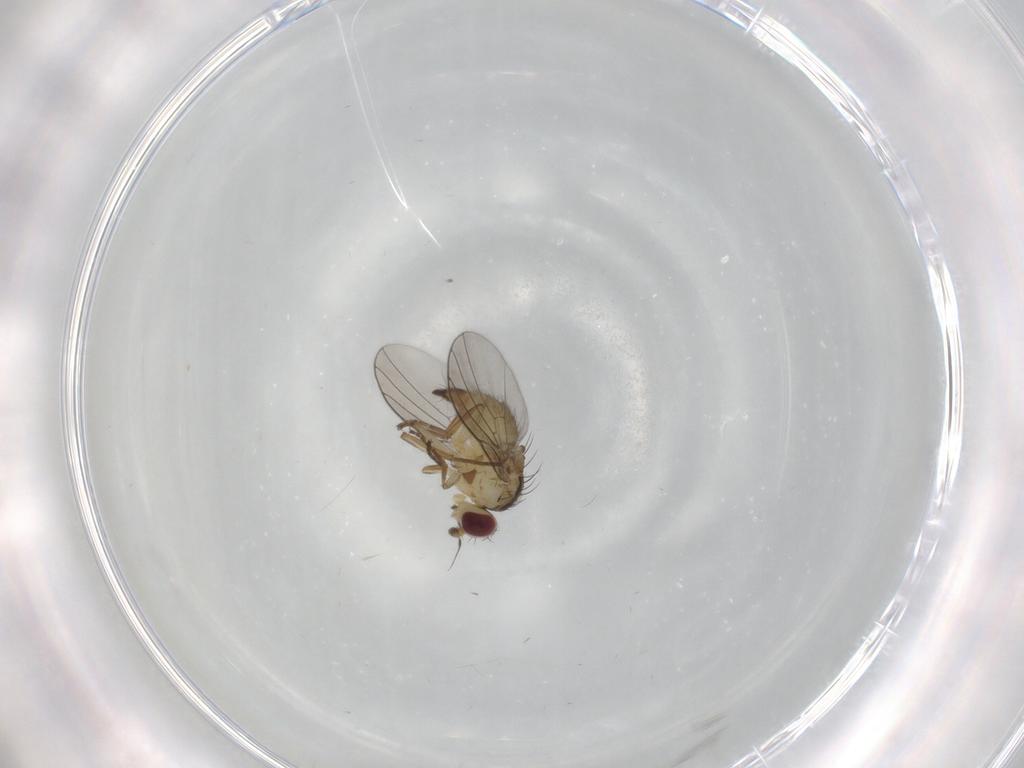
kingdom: Animalia
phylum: Arthropoda
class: Insecta
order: Diptera
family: Agromyzidae
